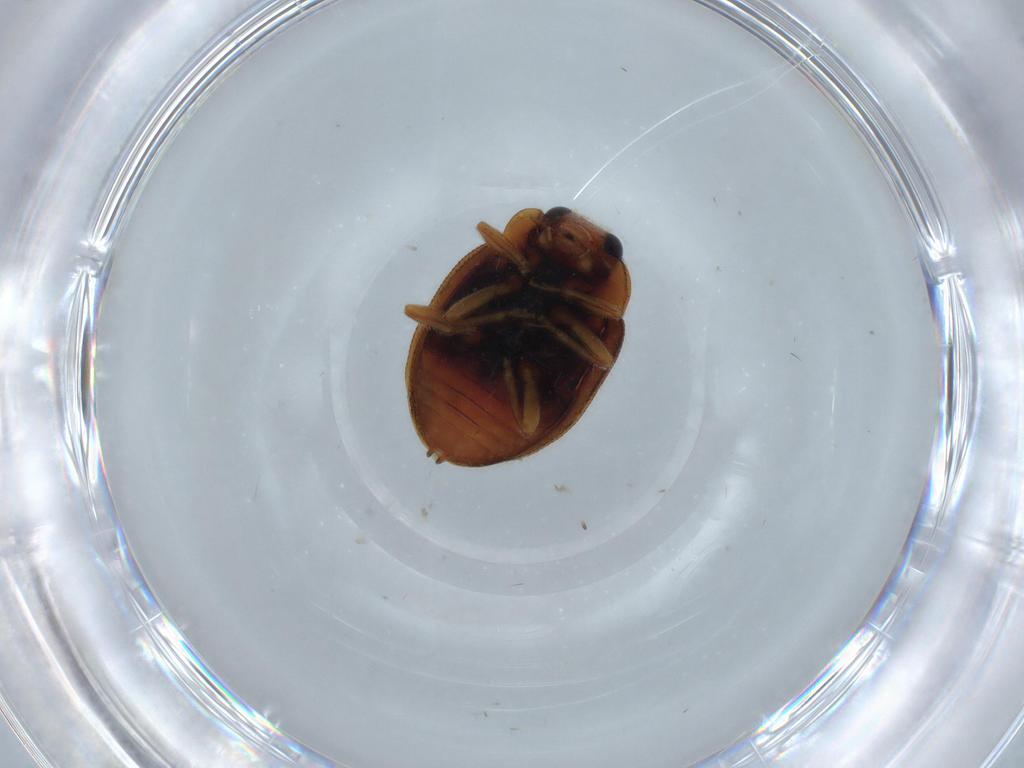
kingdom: Animalia
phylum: Arthropoda
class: Insecta
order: Coleoptera
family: Coccinellidae
